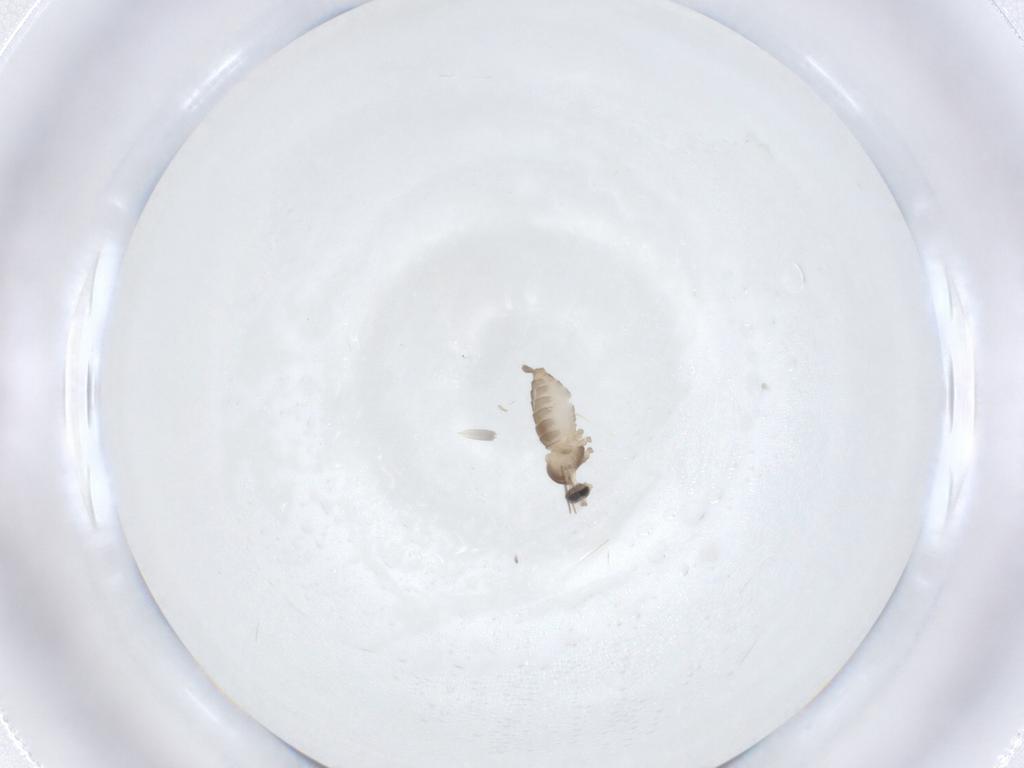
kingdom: Animalia
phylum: Arthropoda
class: Insecta
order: Diptera
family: Cecidomyiidae
